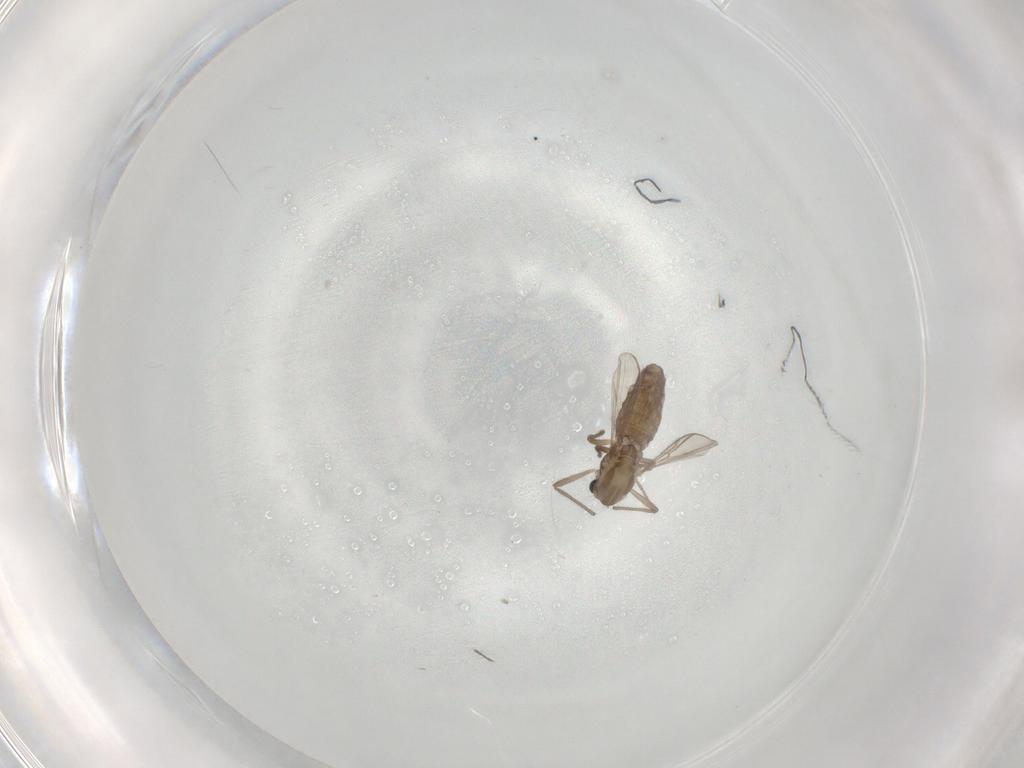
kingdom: Animalia
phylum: Arthropoda
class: Insecta
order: Diptera
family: Chironomidae
